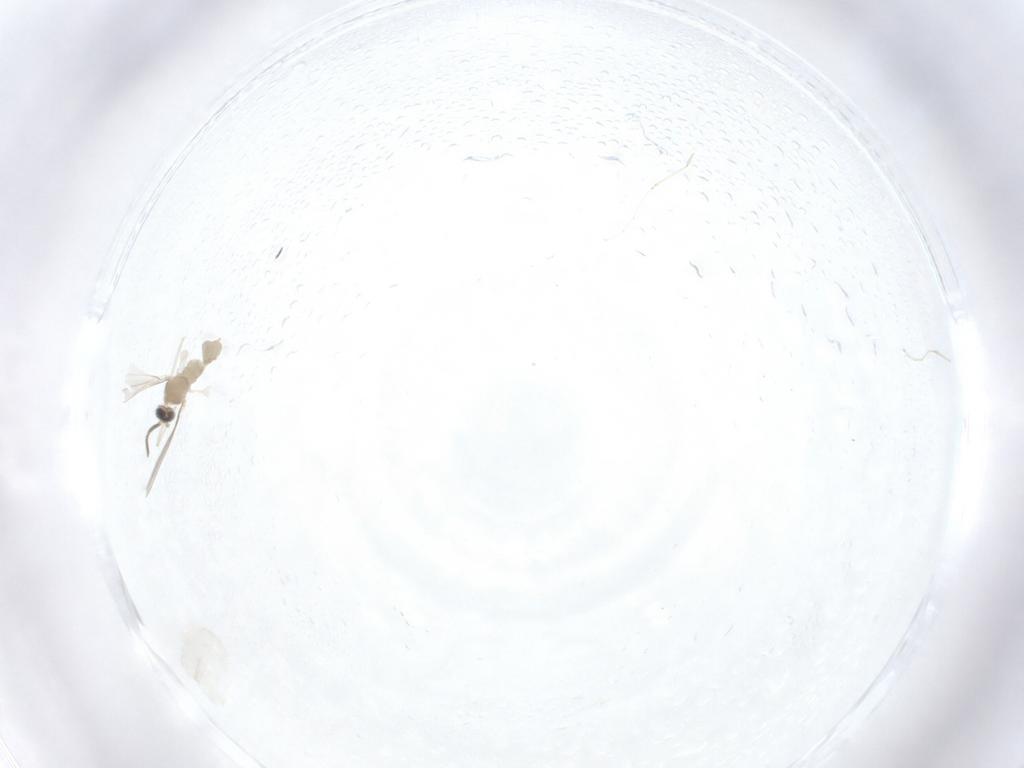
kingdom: Animalia
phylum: Arthropoda
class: Insecta
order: Diptera
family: Tabanidae
